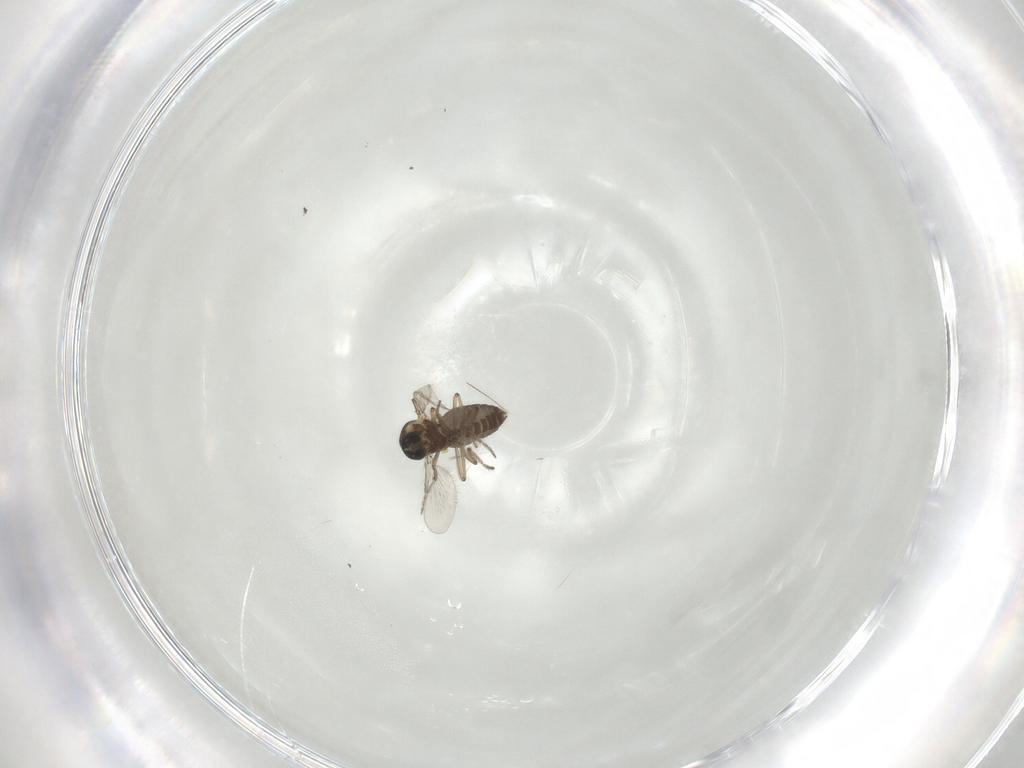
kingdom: Animalia
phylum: Arthropoda
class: Insecta
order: Diptera
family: Ceratopogonidae
